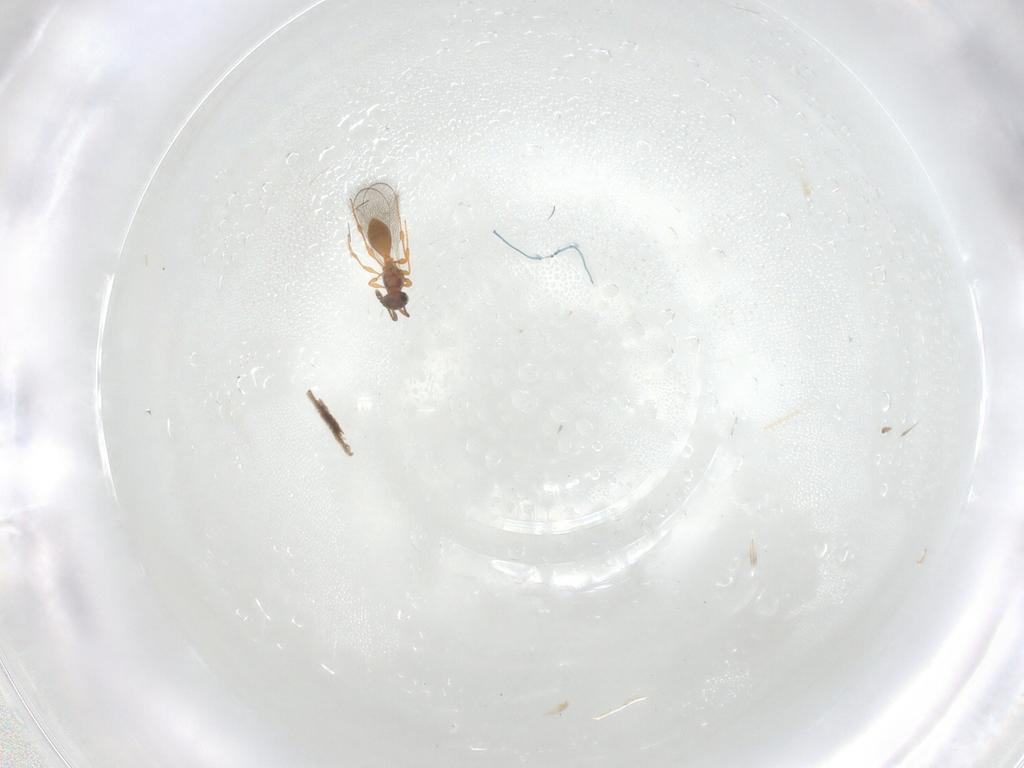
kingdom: Animalia
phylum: Arthropoda
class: Insecta
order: Hymenoptera
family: Platygastridae
